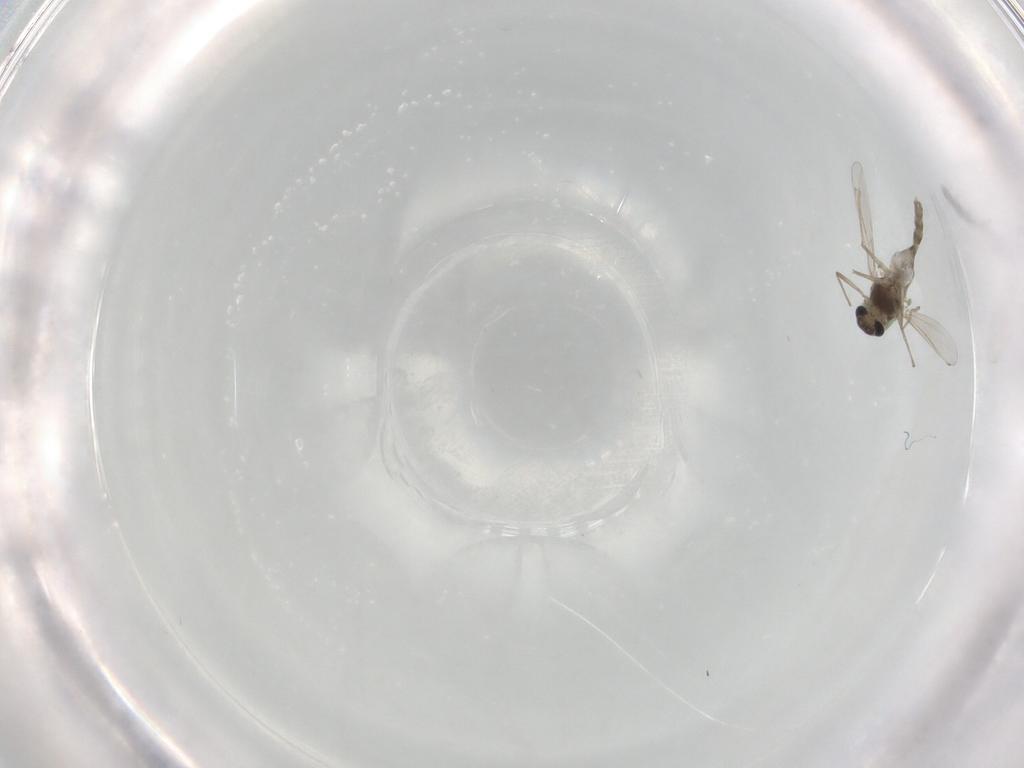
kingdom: Animalia
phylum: Arthropoda
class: Insecta
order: Diptera
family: Chironomidae
